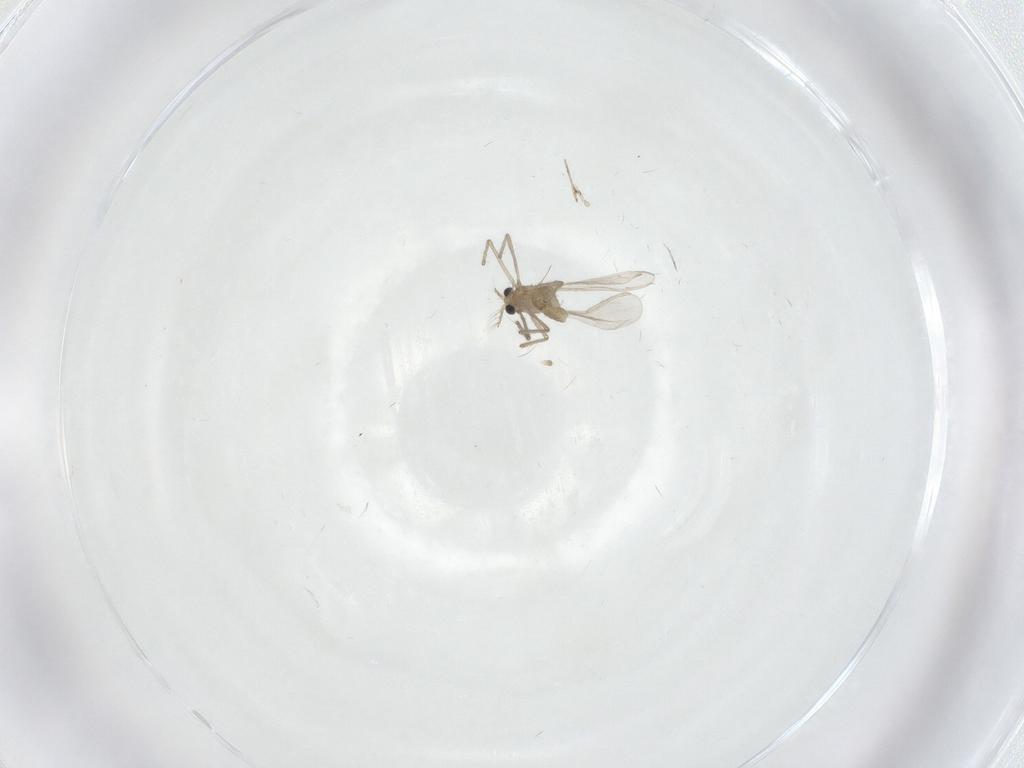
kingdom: Animalia
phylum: Arthropoda
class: Insecta
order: Diptera
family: Chironomidae
